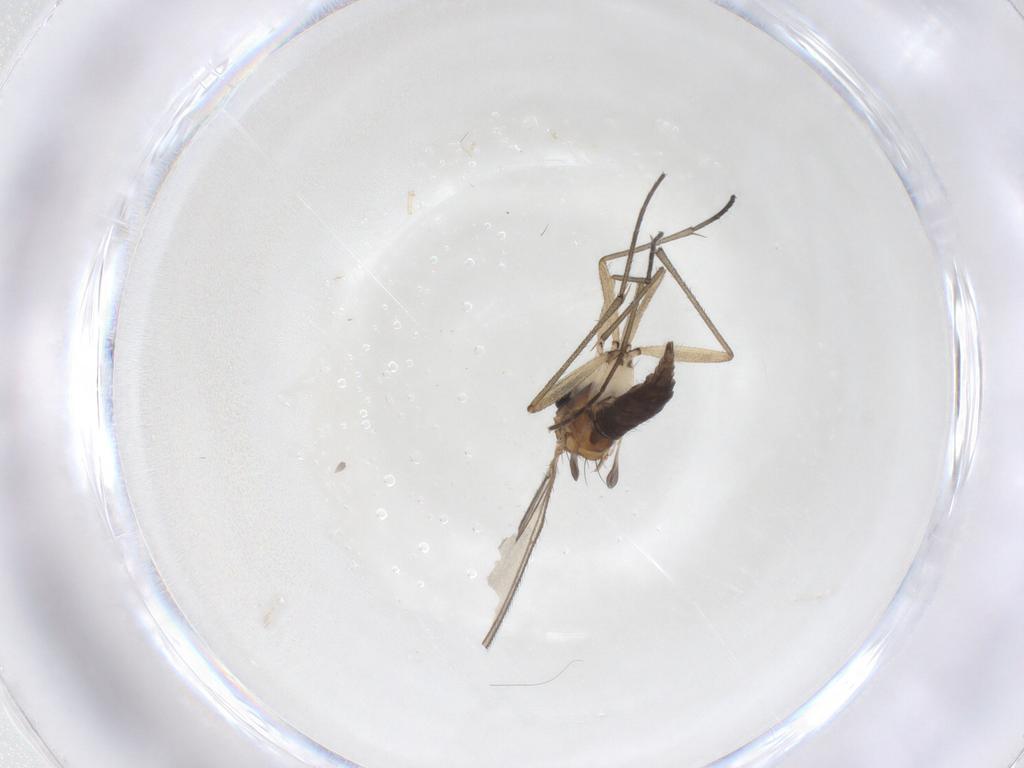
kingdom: Animalia
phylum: Arthropoda
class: Insecta
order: Diptera
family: Sciaridae
